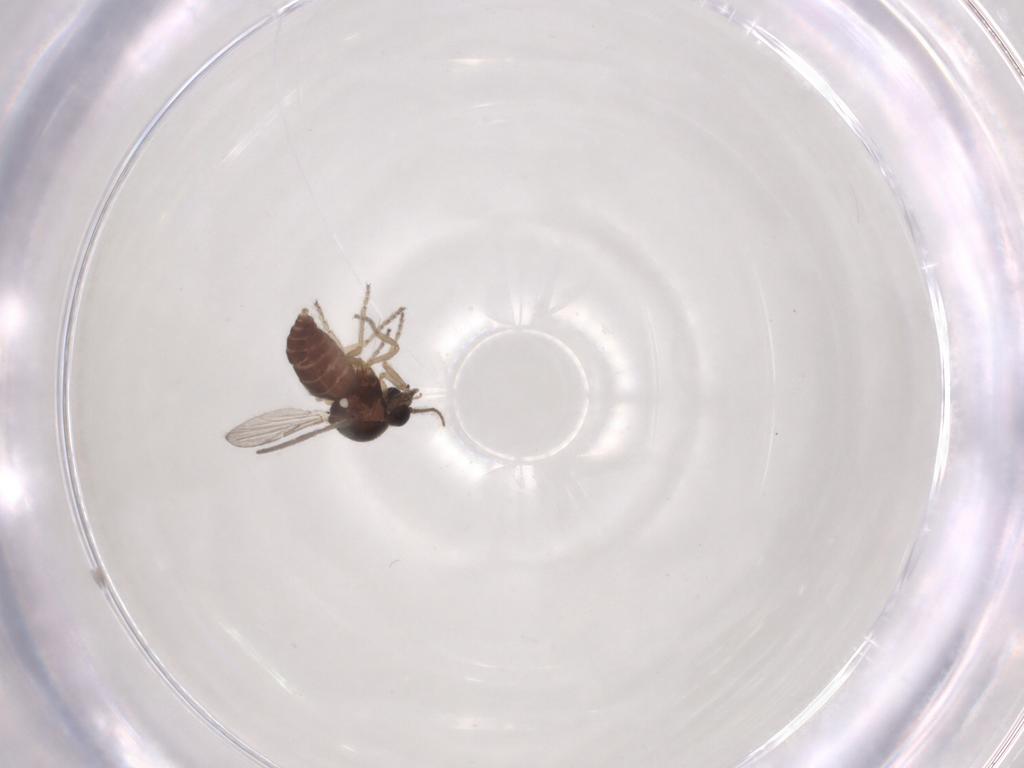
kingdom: Animalia
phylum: Arthropoda
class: Insecta
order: Diptera
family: Ceratopogonidae
